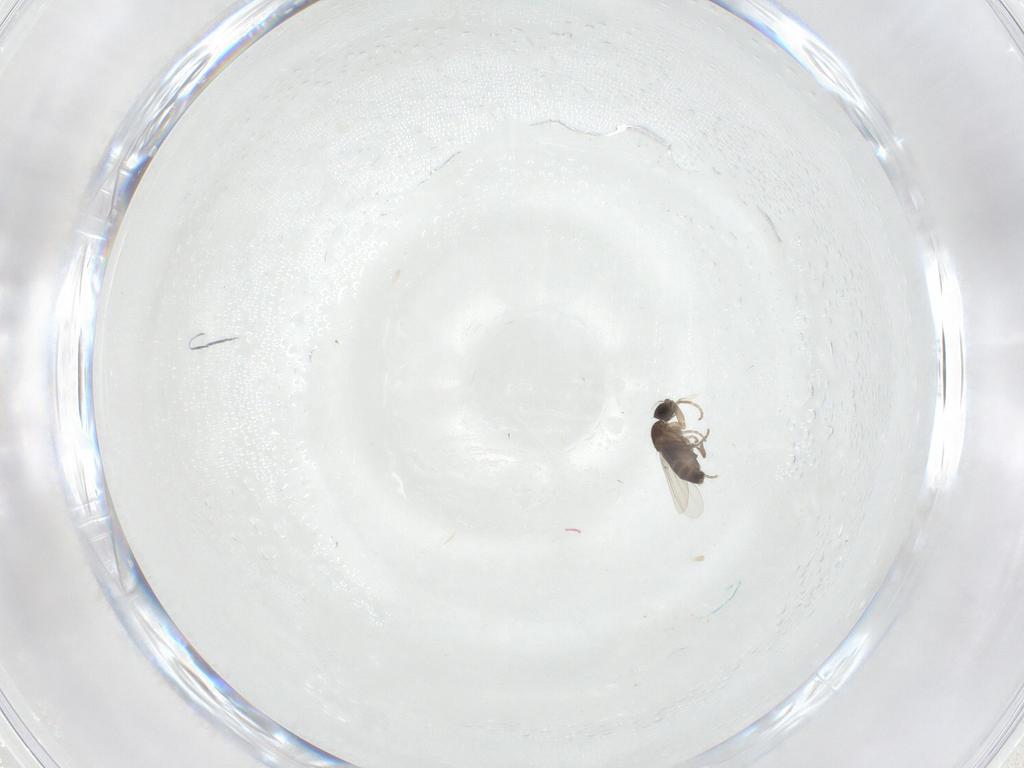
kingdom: Animalia
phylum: Arthropoda
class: Insecta
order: Diptera
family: Phoridae
